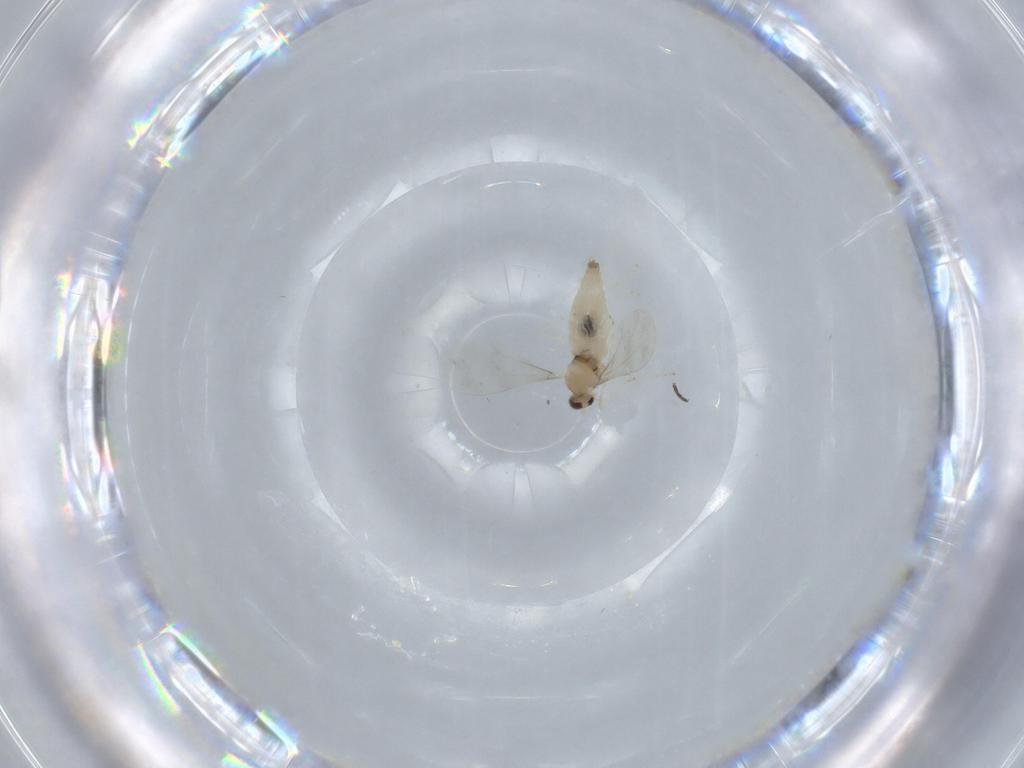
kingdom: Animalia
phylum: Arthropoda
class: Insecta
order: Diptera
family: Cecidomyiidae
